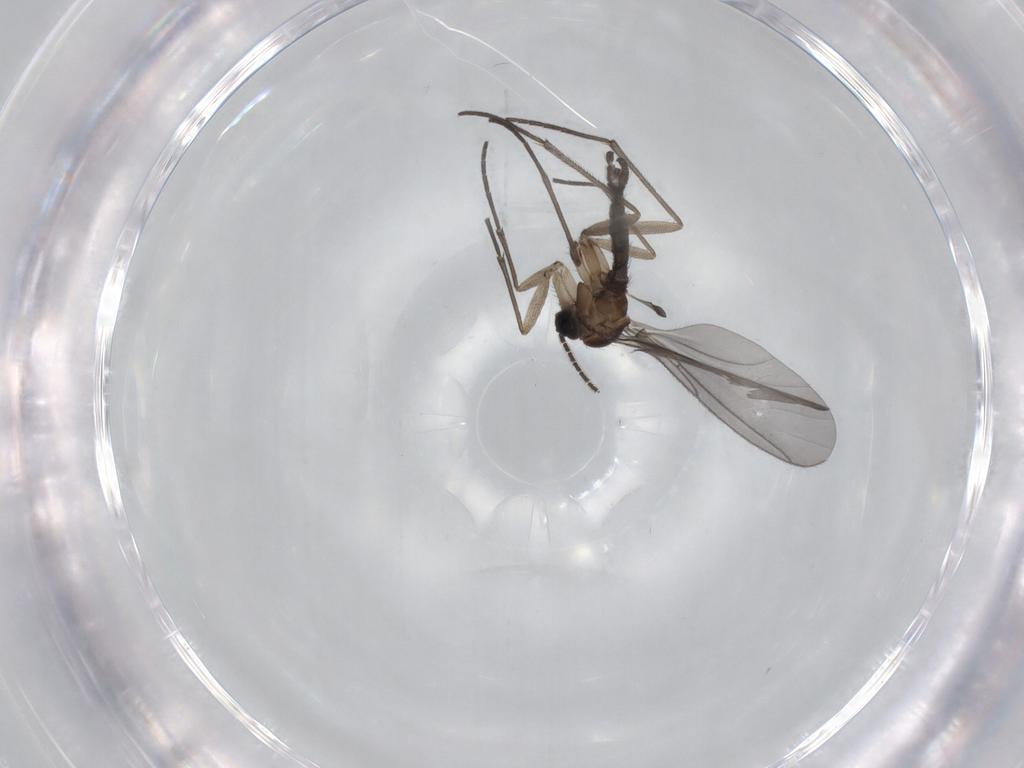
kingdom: Animalia
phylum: Arthropoda
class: Insecta
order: Diptera
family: Sciaridae
